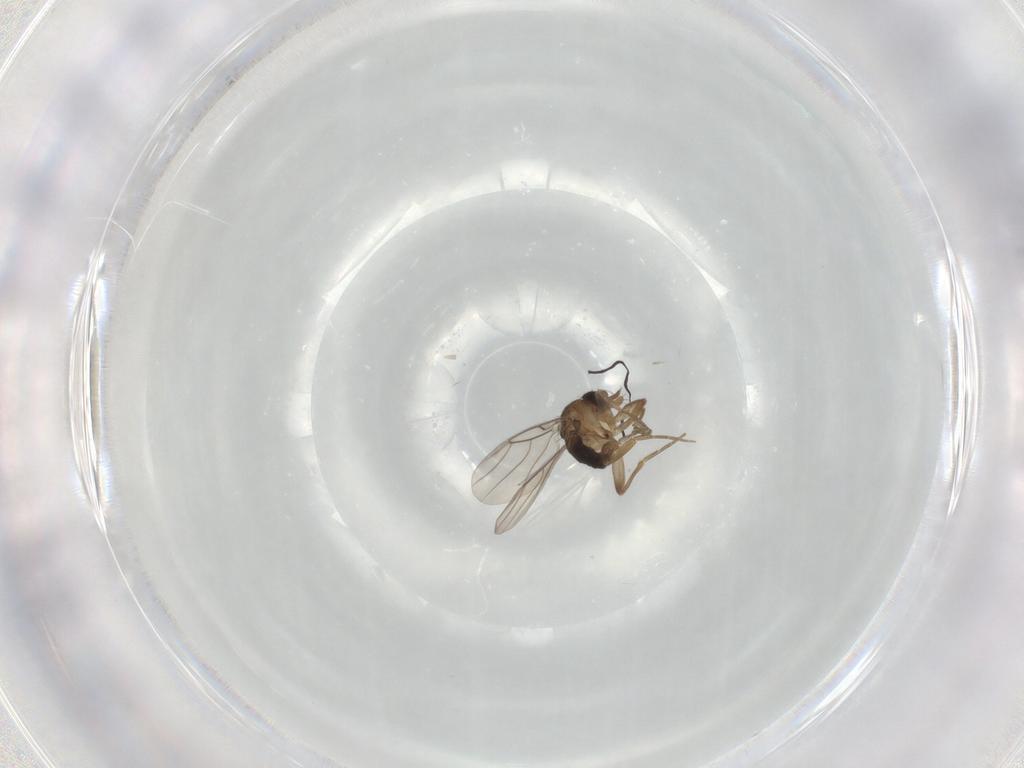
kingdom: Animalia
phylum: Arthropoda
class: Insecta
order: Diptera
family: Phoridae
